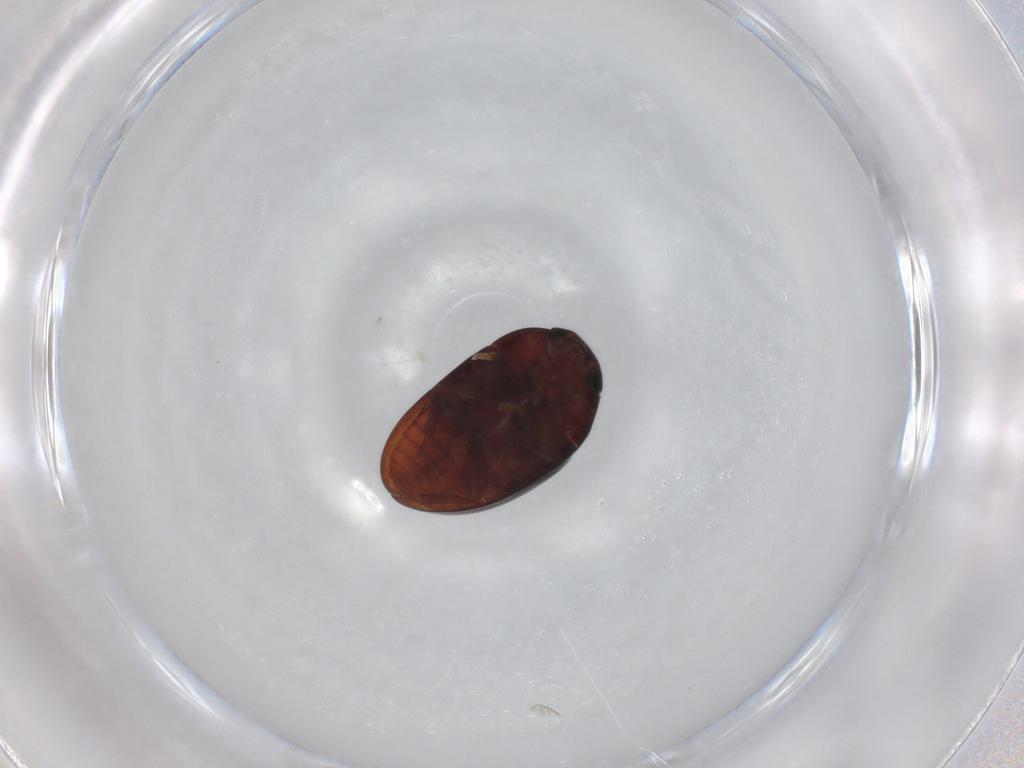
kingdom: Animalia
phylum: Arthropoda
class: Insecta
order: Coleoptera
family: Phalacridae
